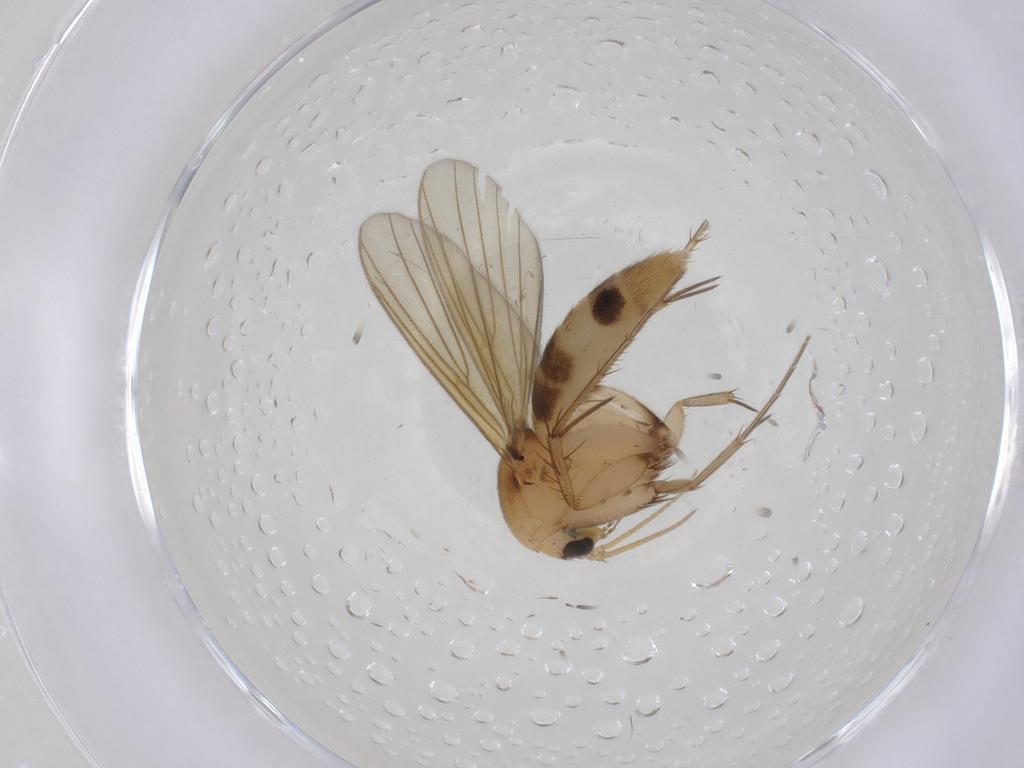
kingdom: Animalia
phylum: Arthropoda
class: Insecta
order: Diptera
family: Mycetophilidae
